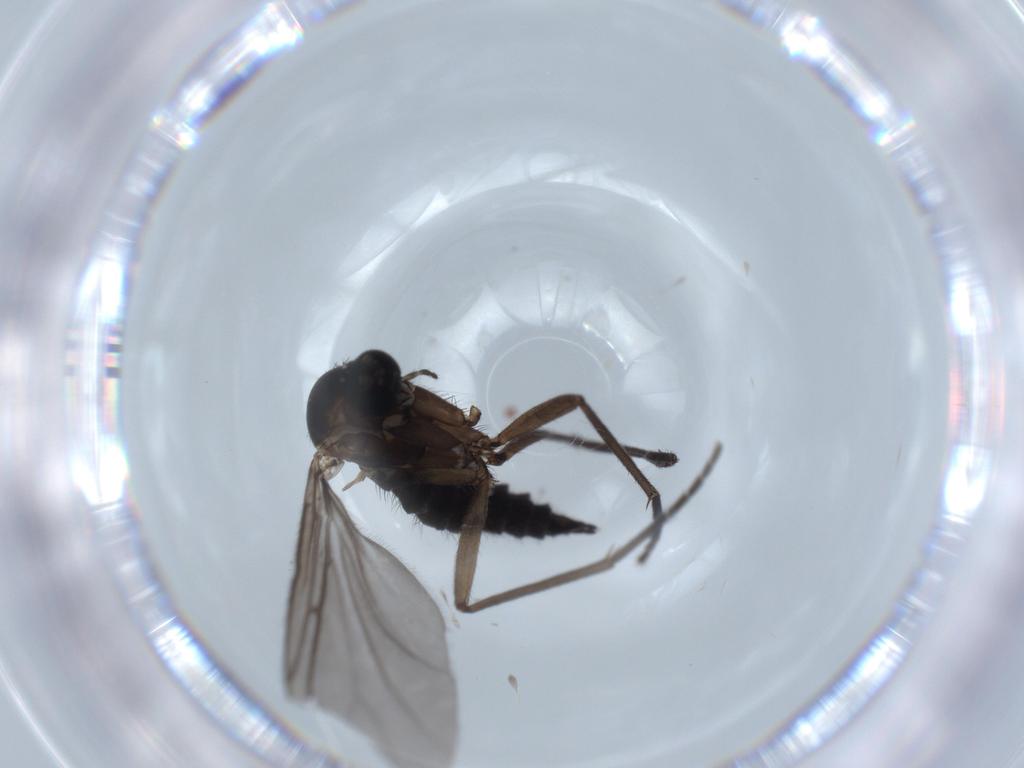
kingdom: Animalia
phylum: Arthropoda
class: Insecta
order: Diptera
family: Sciaridae
